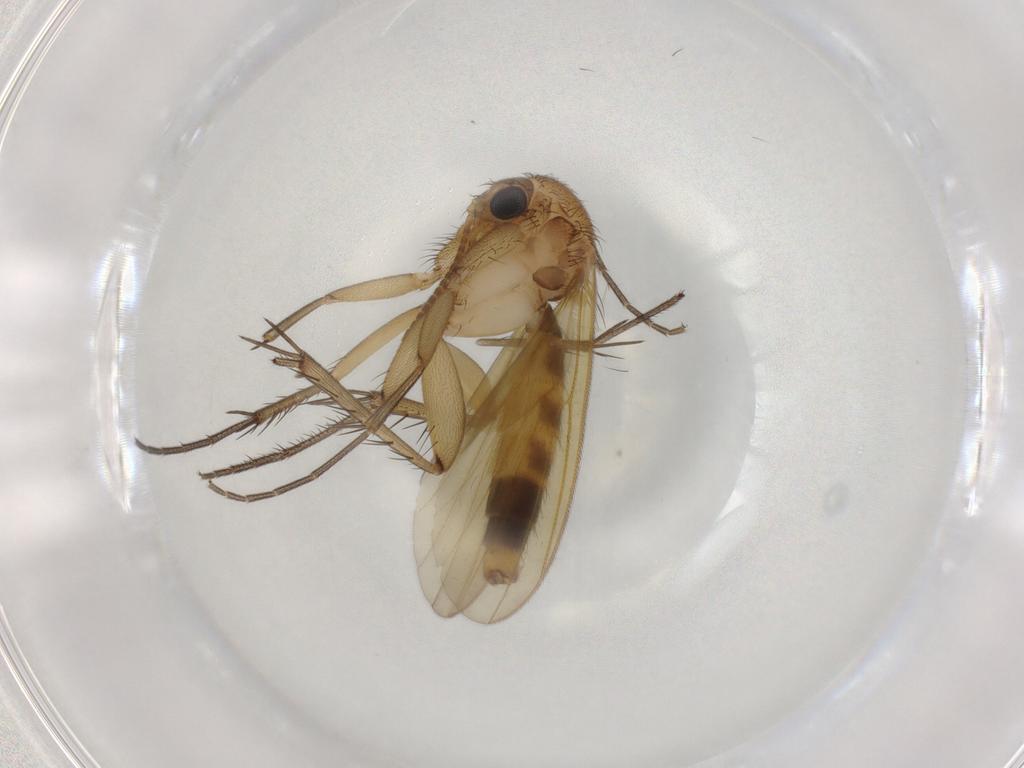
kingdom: Animalia
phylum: Arthropoda
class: Insecta
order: Diptera
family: Mycetophilidae
